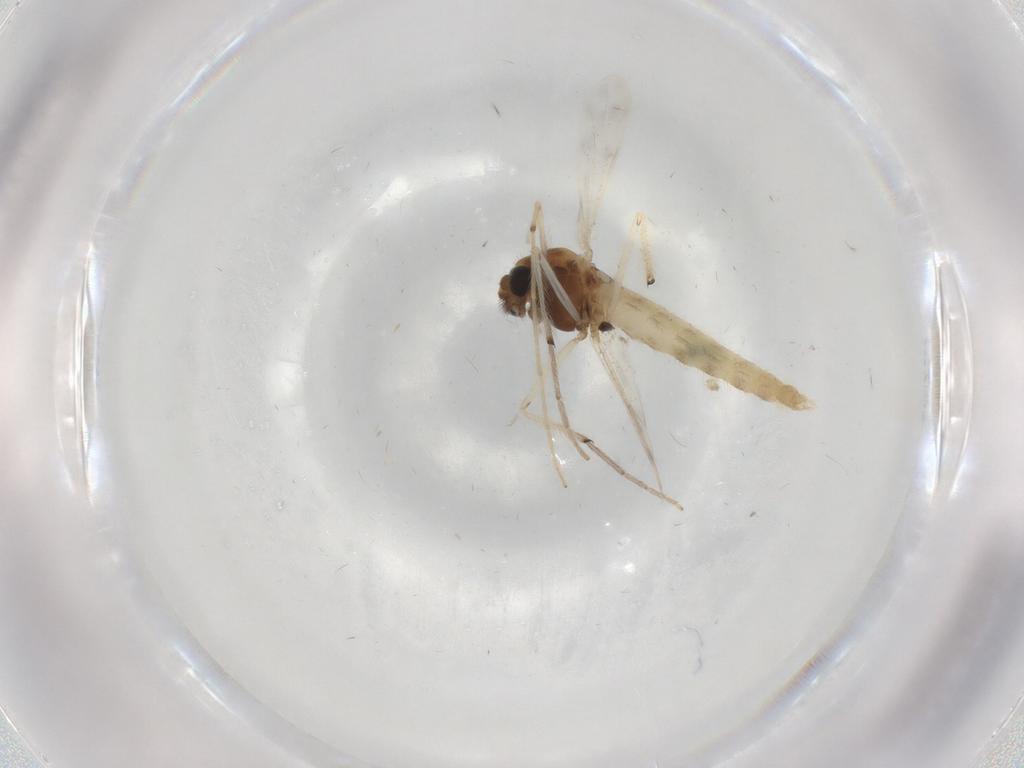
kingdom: Animalia
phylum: Arthropoda
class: Insecta
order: Diptera
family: Chironomidae
